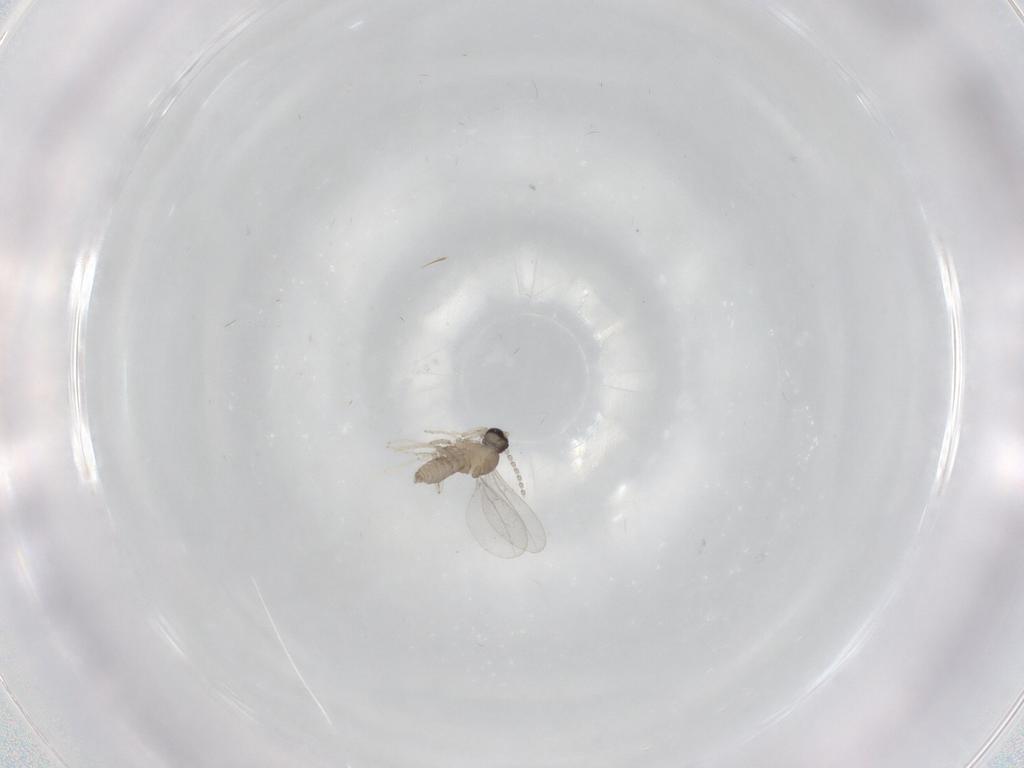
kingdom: Animalia
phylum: Arthropoda
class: Insecta
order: Diptera
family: Cecidomyiidae
